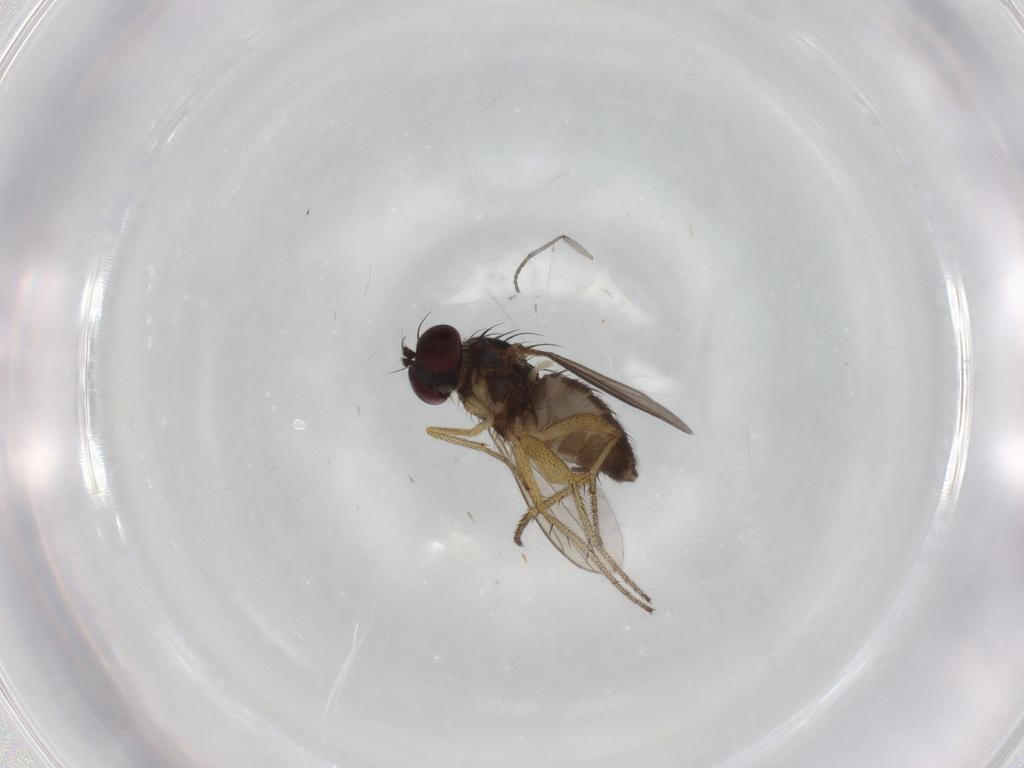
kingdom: Animalia
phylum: Arthropoda
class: Insecta
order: Diptera
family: Sciaridae
